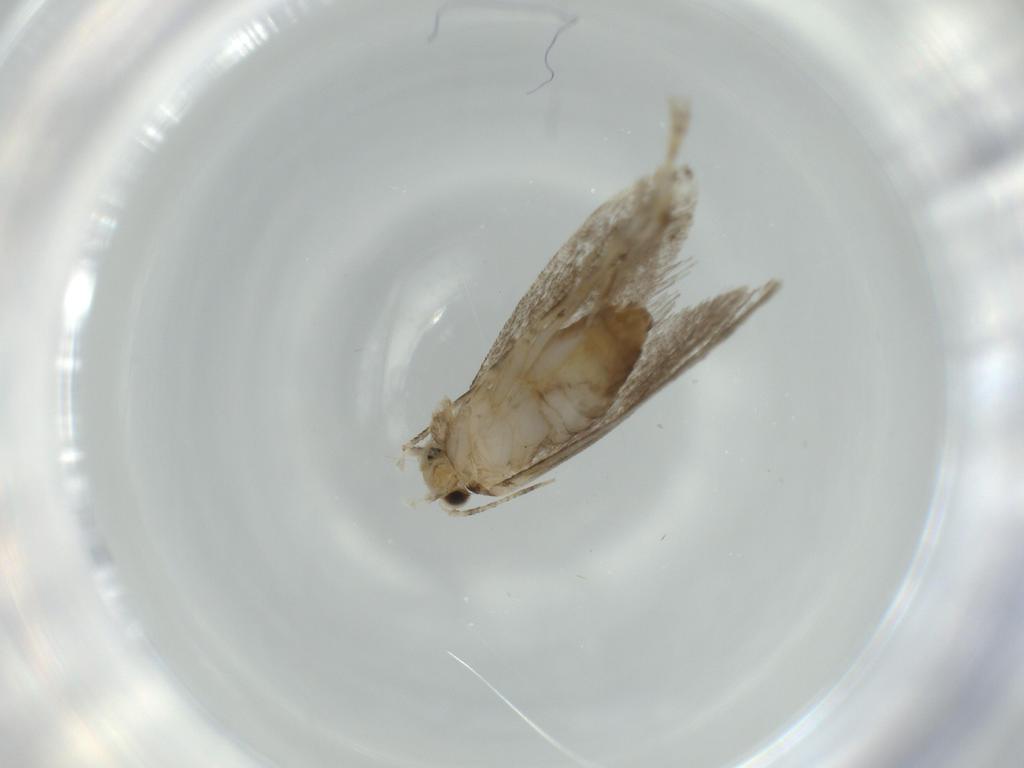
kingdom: Animalia
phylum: Arthropoda
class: Insecta
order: Lepidoptera
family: Tineidae
